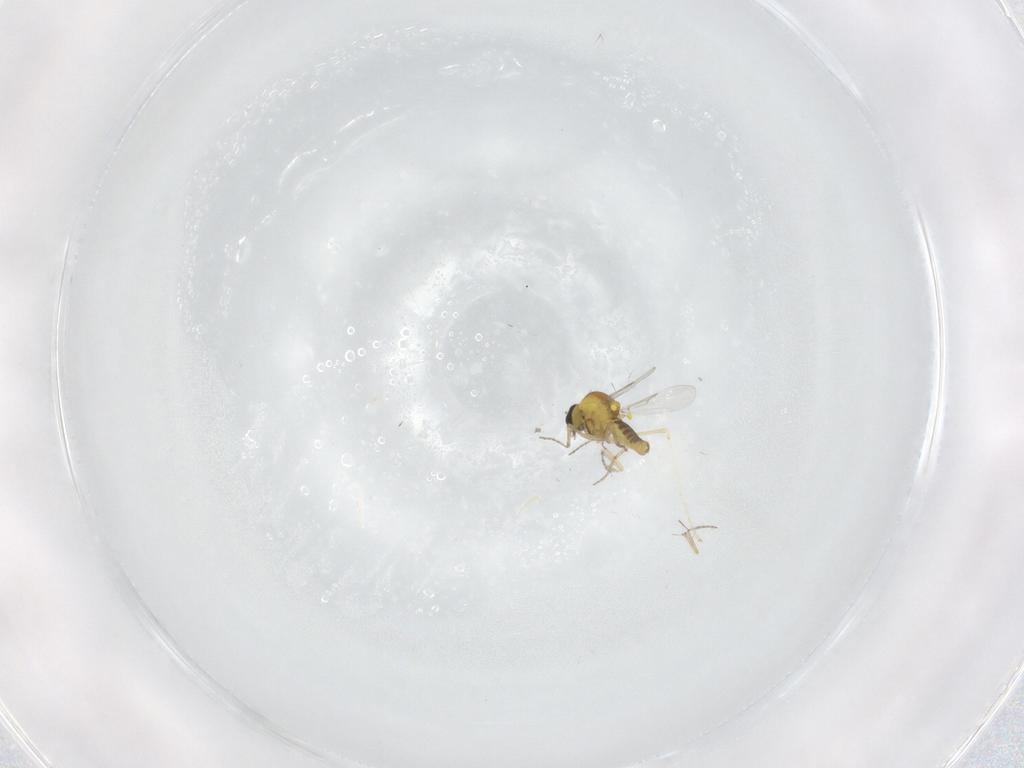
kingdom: Animalia
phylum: Arthropoda
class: Insecta
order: Diptera
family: Cecidomyiidae
